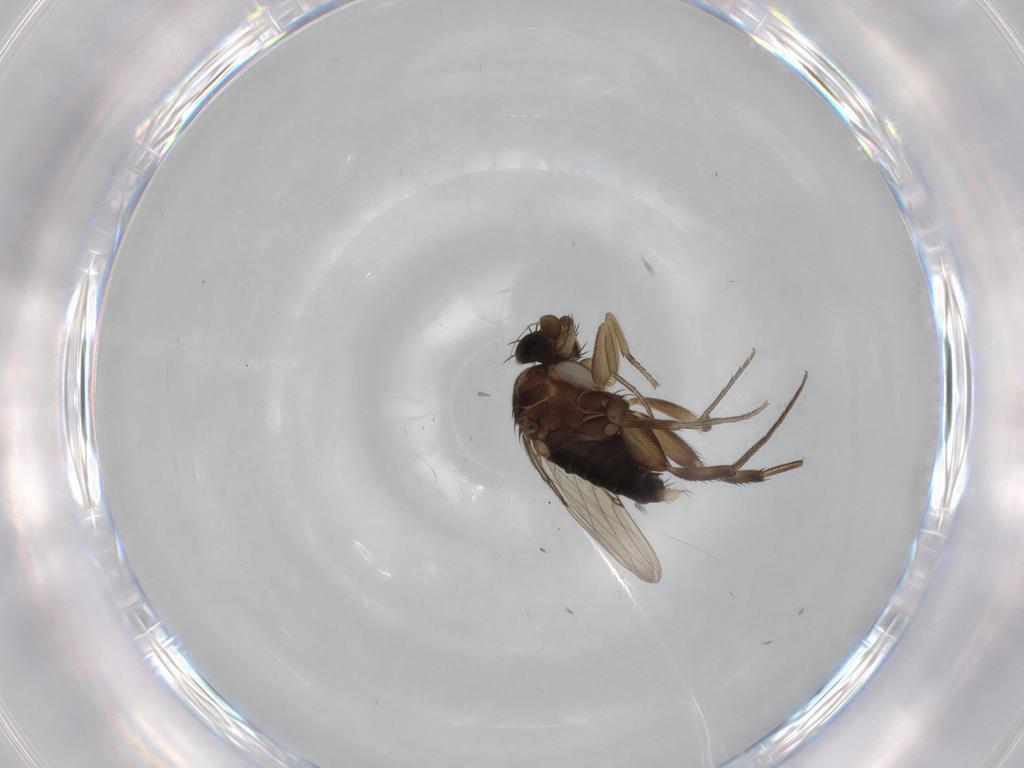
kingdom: Animalia
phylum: Arthropoda
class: Insecta
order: Diptera
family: Phoridae
